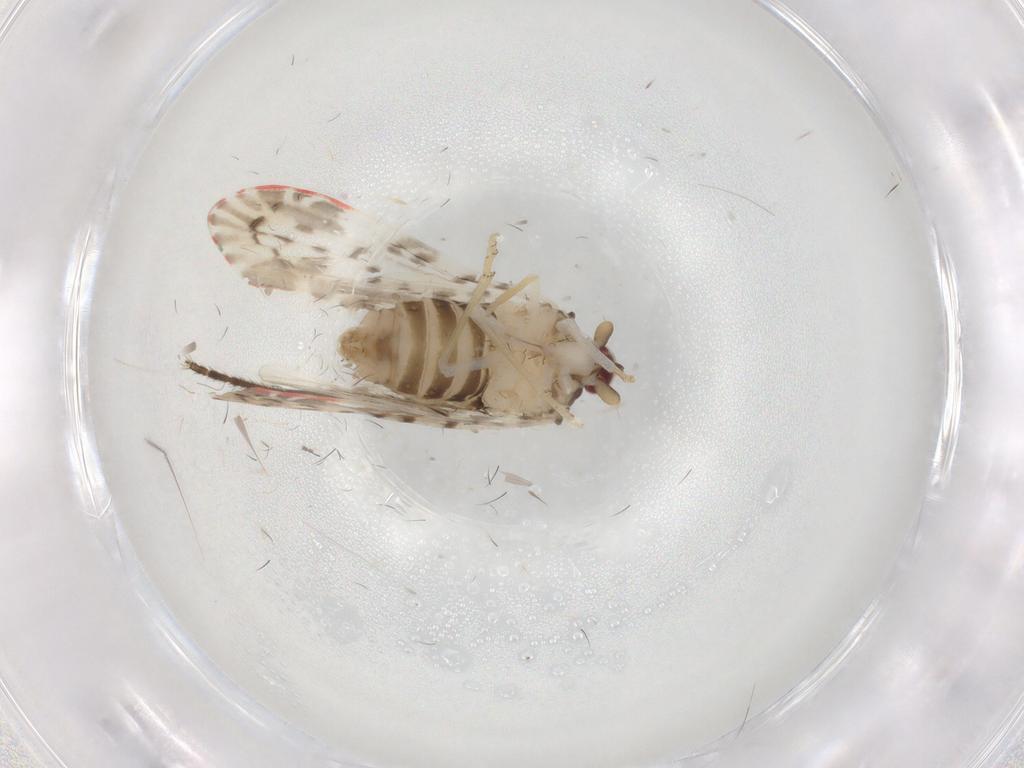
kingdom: Animalia
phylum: Arthropoda
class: Insecta
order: Hemiptera
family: Derbidae
